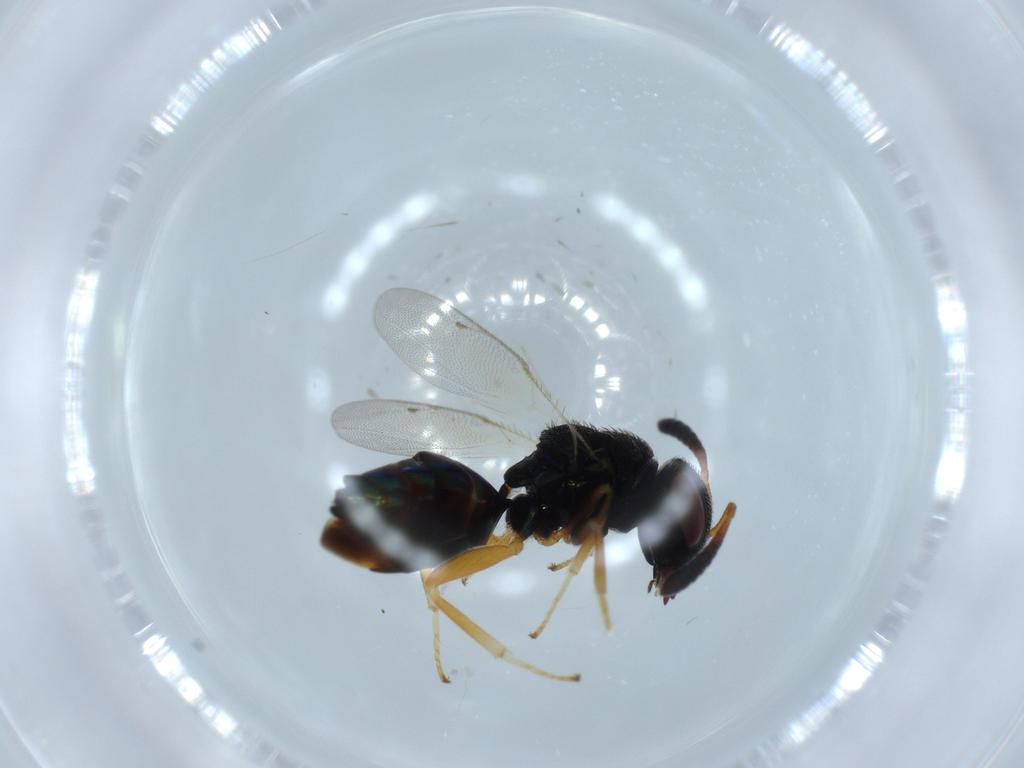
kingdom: Animalia
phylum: Arthropoda
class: Insecta
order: Hymenoptera
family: Agaonidae
